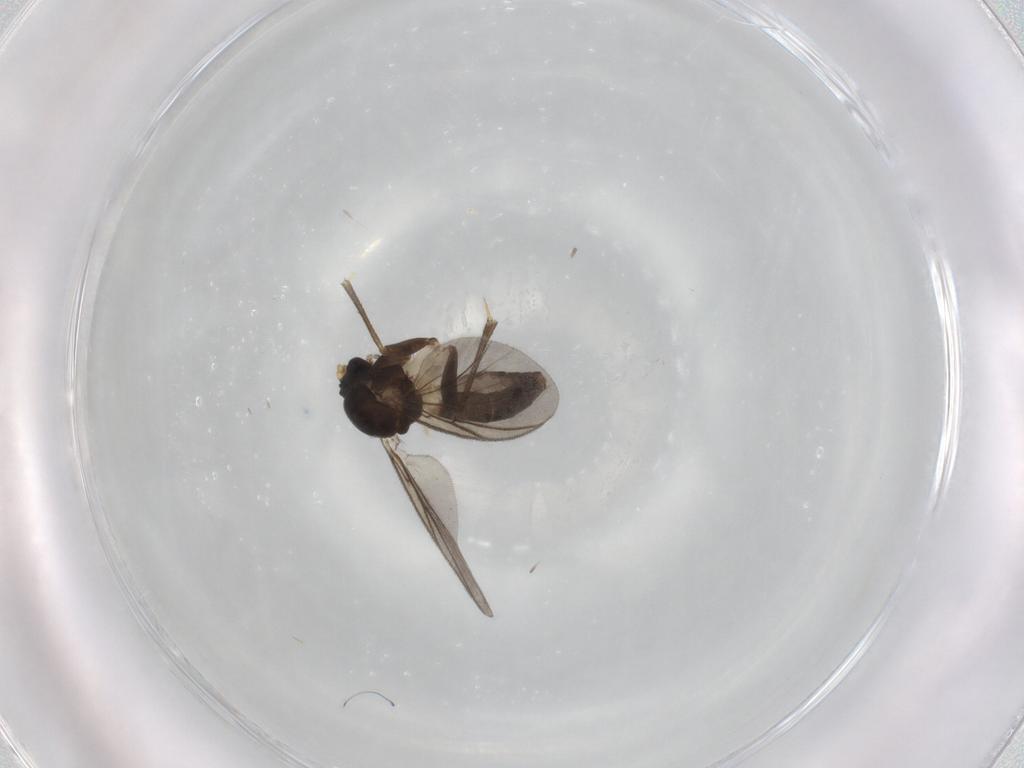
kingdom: Animalia
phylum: Arthropoda
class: Insecta
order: Diptera
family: Mycetophilidae
